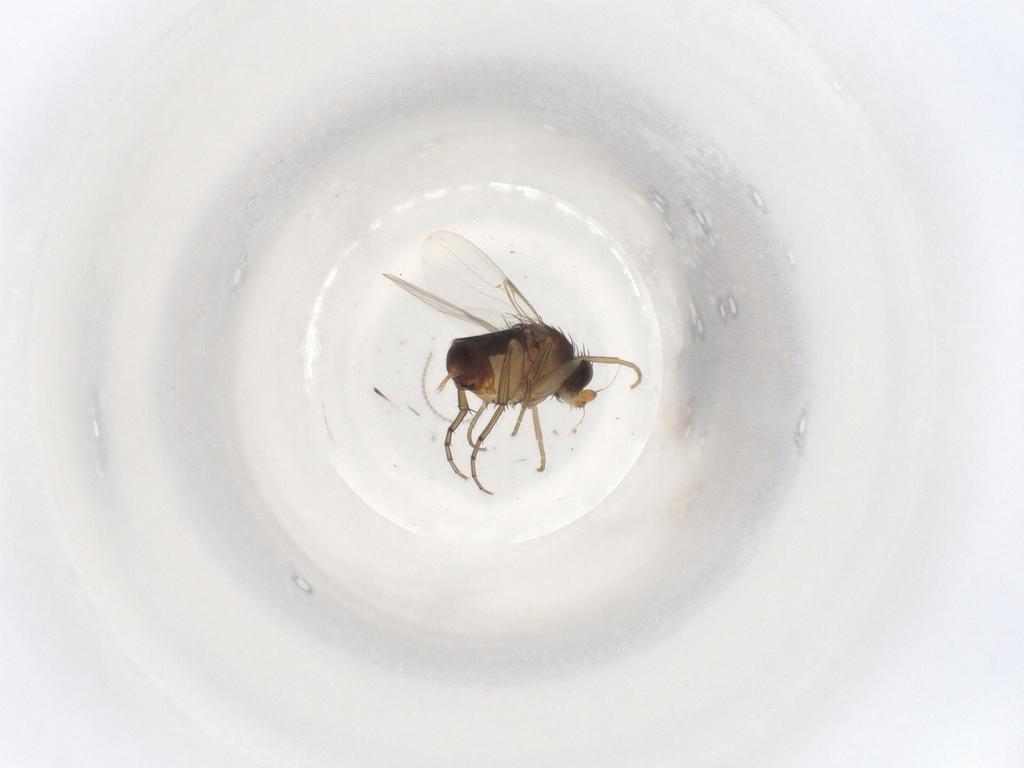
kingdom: Animalia
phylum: Arthropoda
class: Insecta
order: Diptera
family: Phoridae
